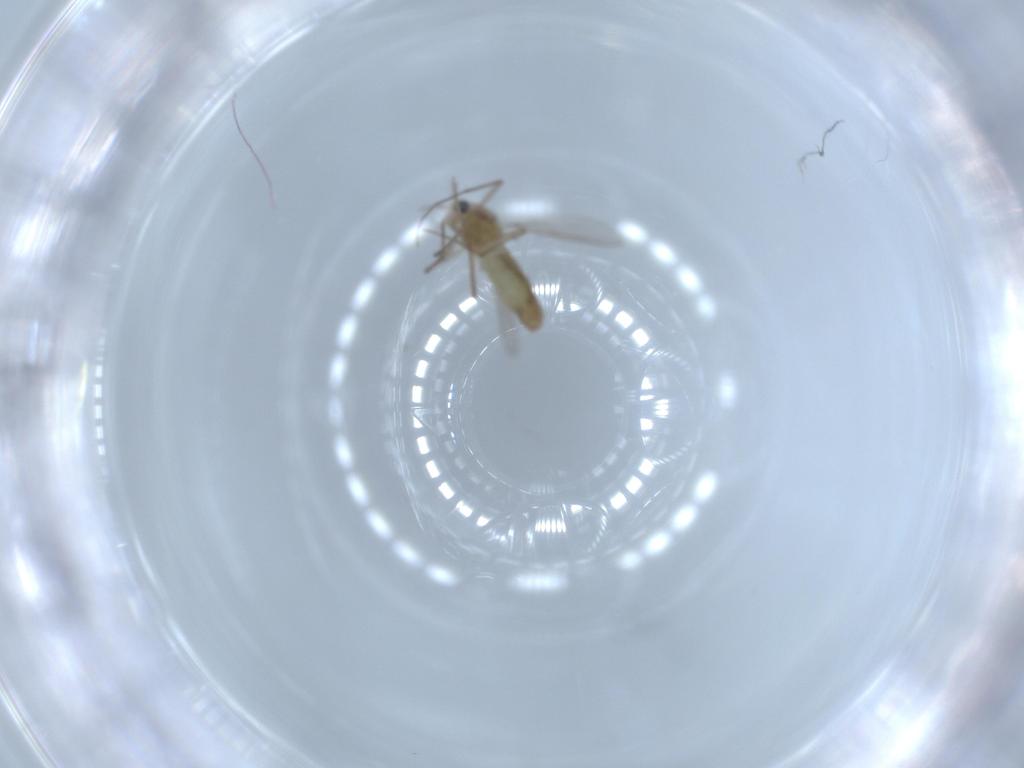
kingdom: Animalia
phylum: Arthropoda
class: Insecta
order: Diptera
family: Cecidomyiidae
